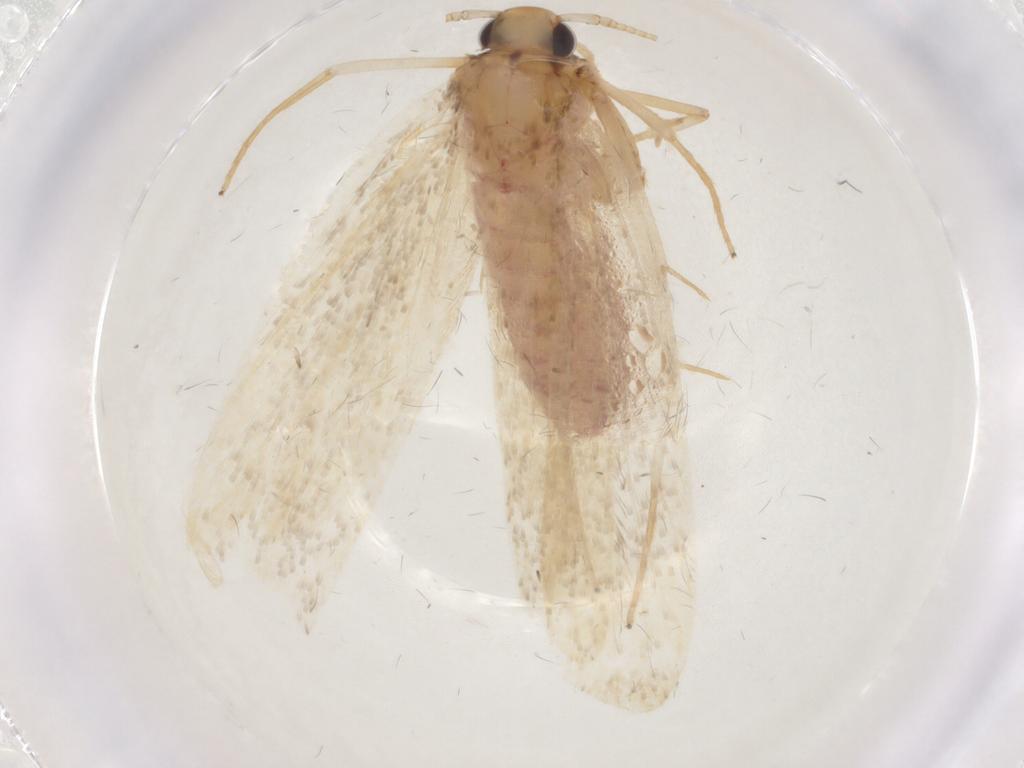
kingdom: Animalia
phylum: Arthropoda
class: Insecta
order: Lepidoptera
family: Lecithoceridae
